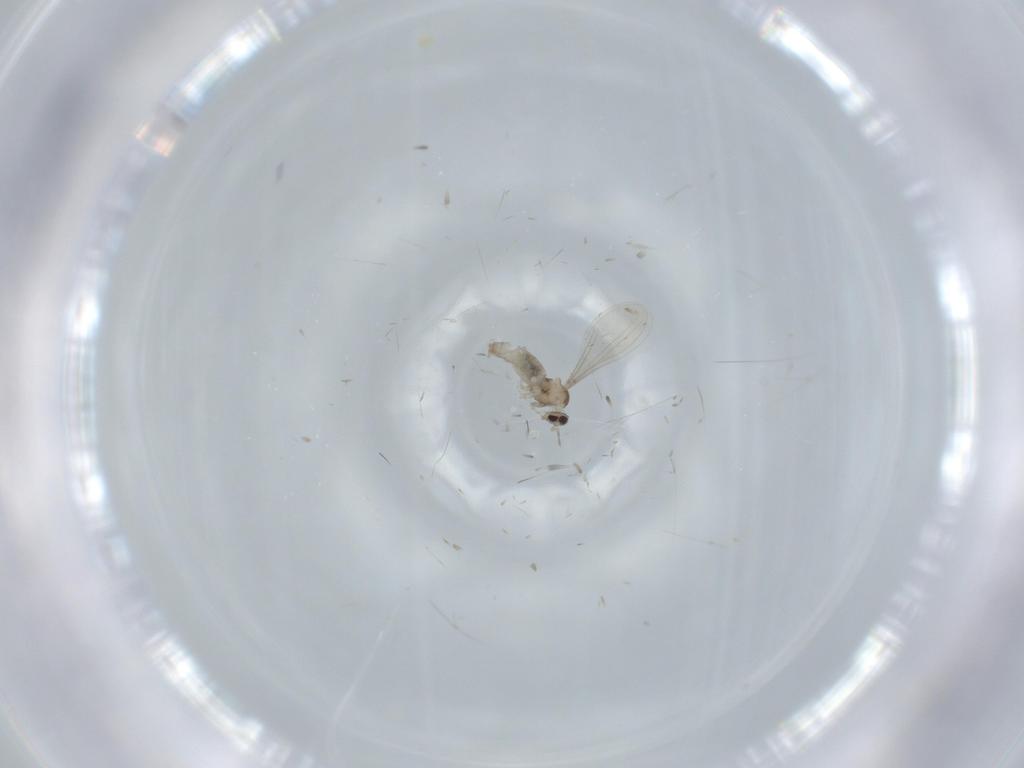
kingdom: Animalia
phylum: Arthropoda
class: Insecta
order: Diptera
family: Cecidomyiidae
